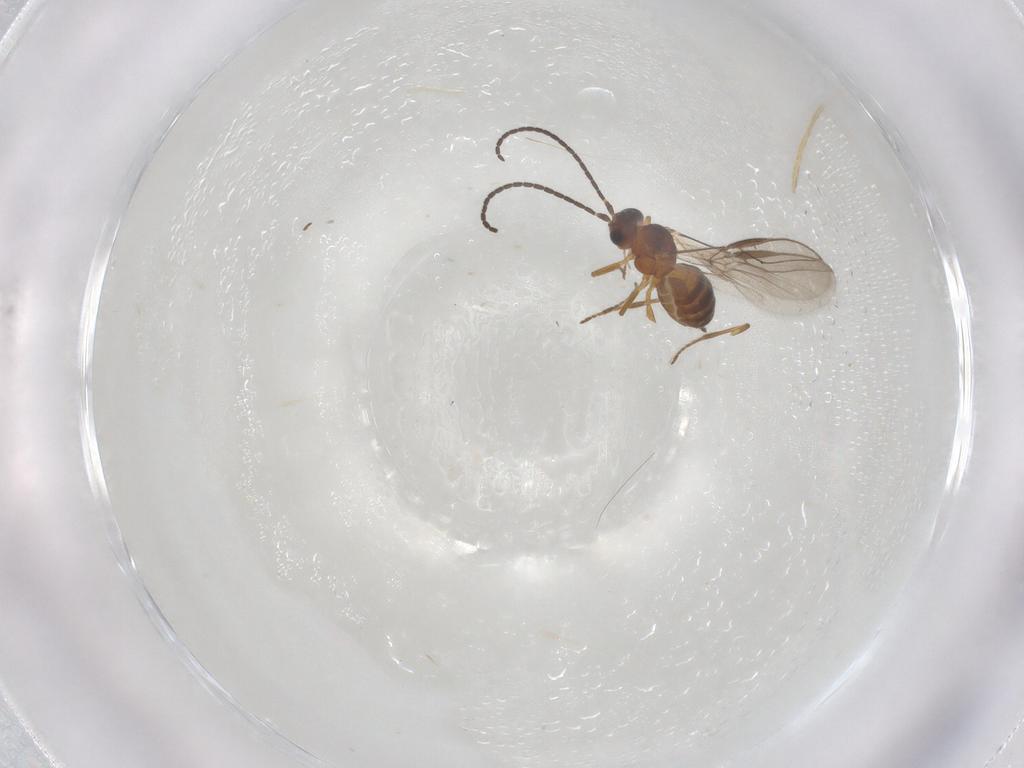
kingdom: Animalia
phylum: Arthropoda
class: Insecta
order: Hymenoptera
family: Braconidae
